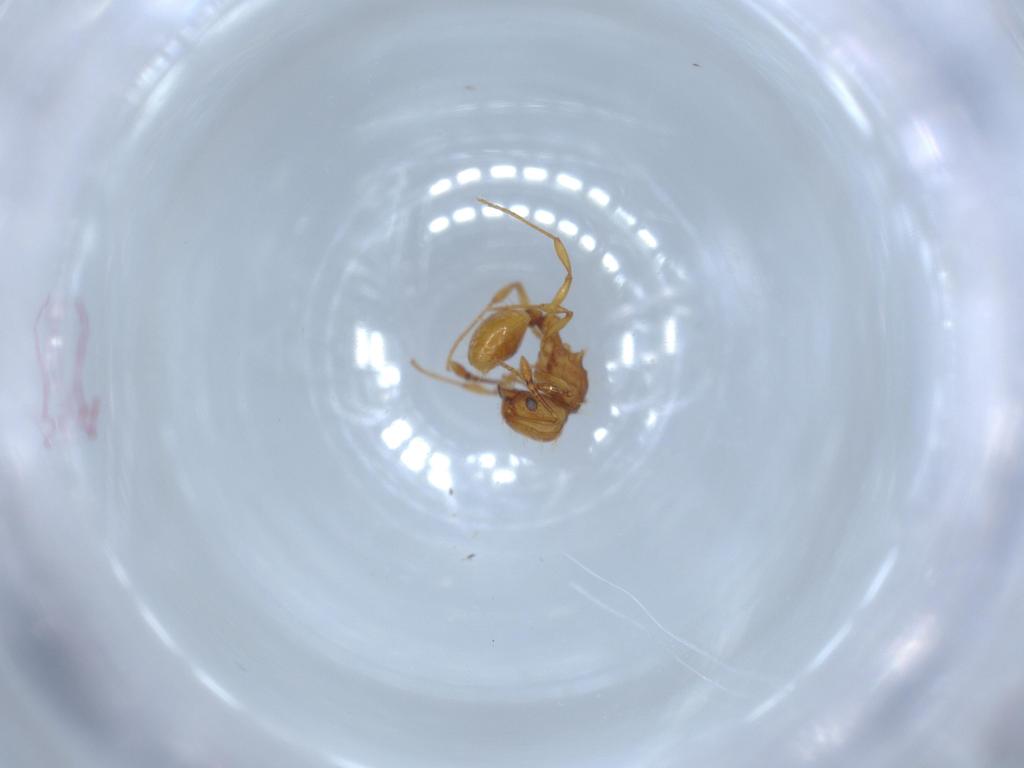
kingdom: Animalia
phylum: Arthropoda
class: Insecta
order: Hymenoptera
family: Formicidae
